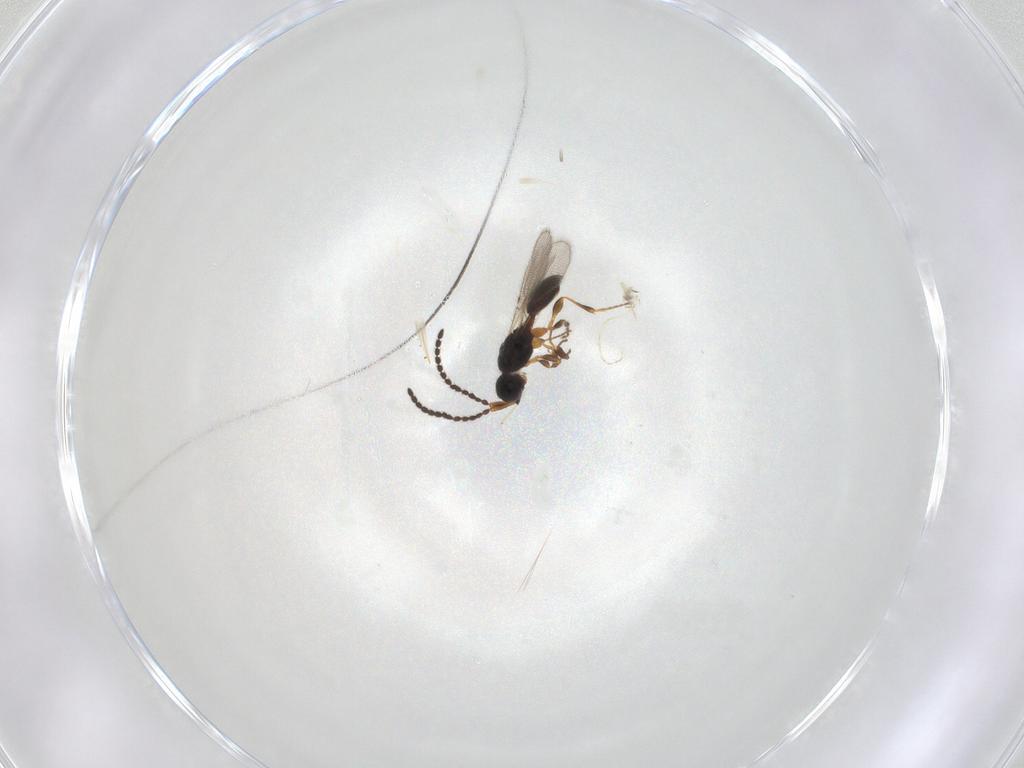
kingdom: Animalia
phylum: Arthropoda
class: Insecta
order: Hymenoptera
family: Diapriidae
